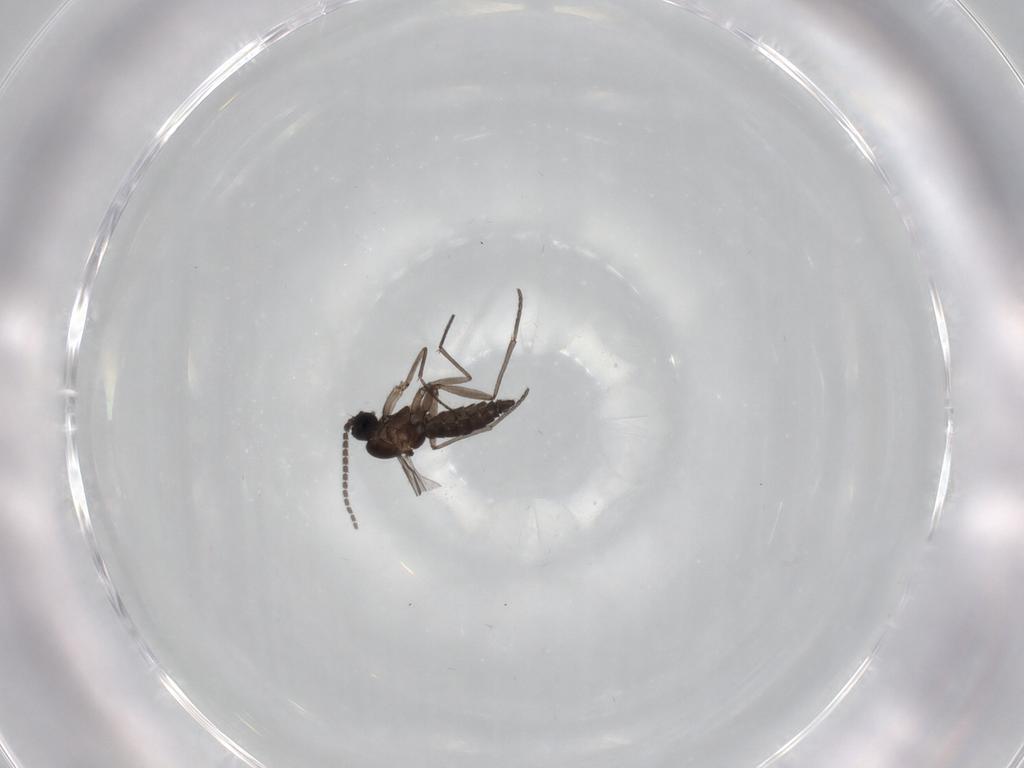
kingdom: Animalia
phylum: Arthropoda
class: Insecta
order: Diptera
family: Cecidomyiidae
